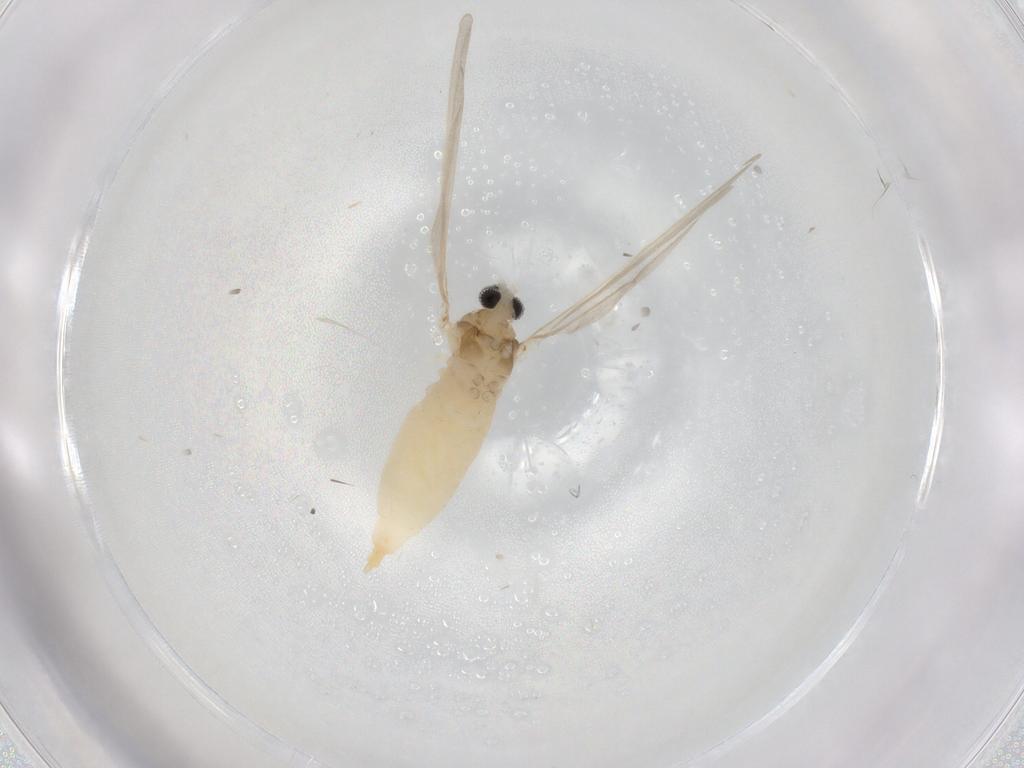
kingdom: Animalia
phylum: Arthropoda
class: Insecta
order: Diptera
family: Cecidomyiidae
